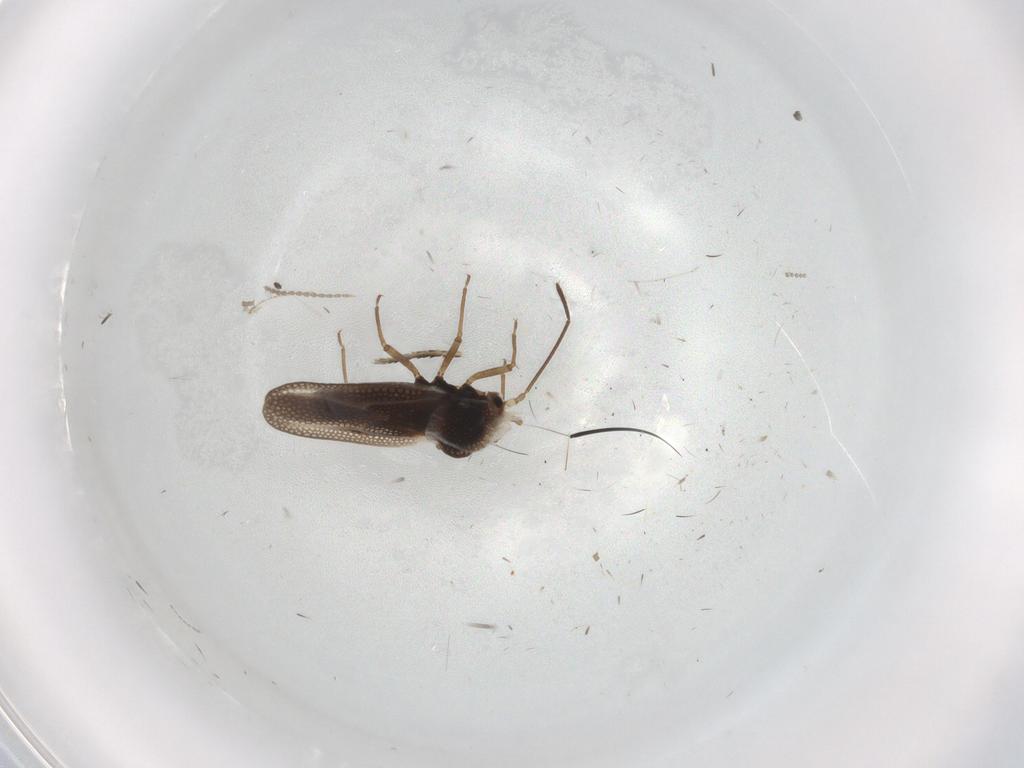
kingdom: Animalia
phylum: Arthropoda
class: Insecta
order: Hemiptera
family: Tingidae
